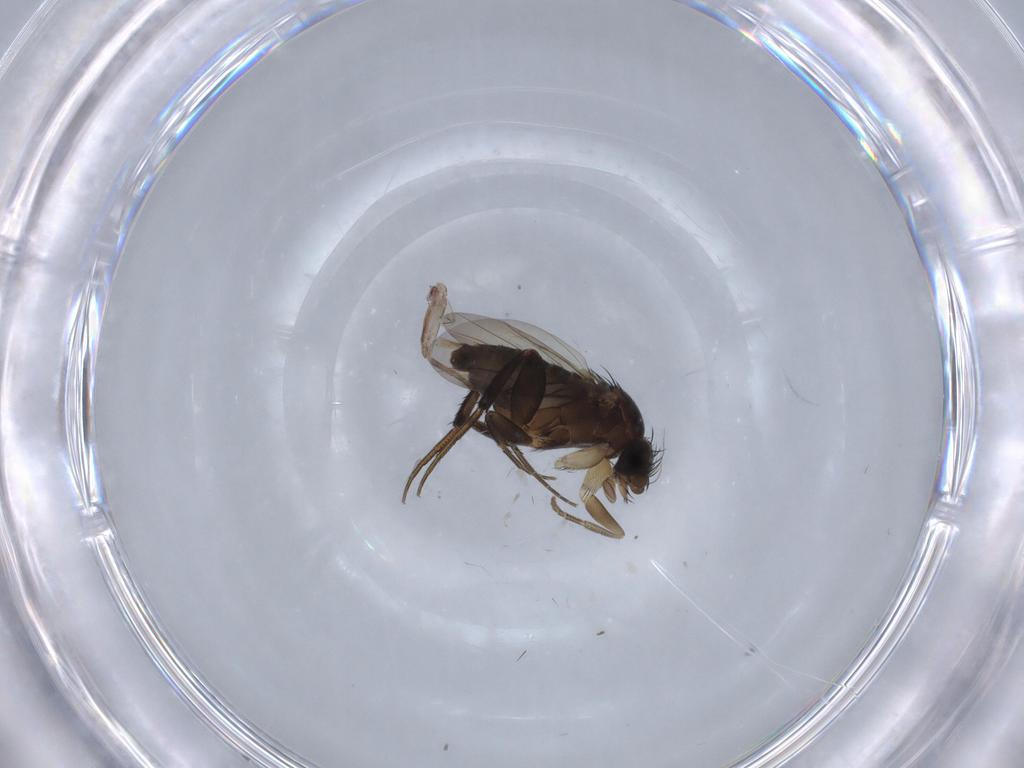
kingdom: Animalia
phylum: Arthropoda
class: Insecta
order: Diptera
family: Phoridae
